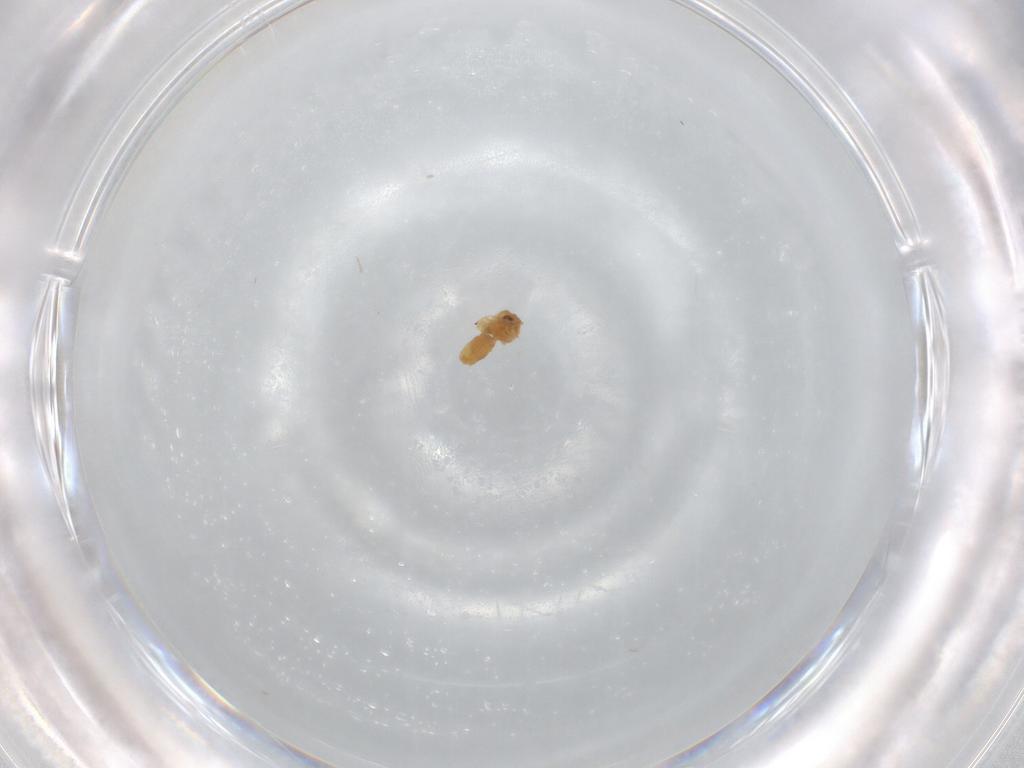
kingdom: Animalia
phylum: Arthropoda
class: Insecta
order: Hemiptera
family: Aleyrodidae
